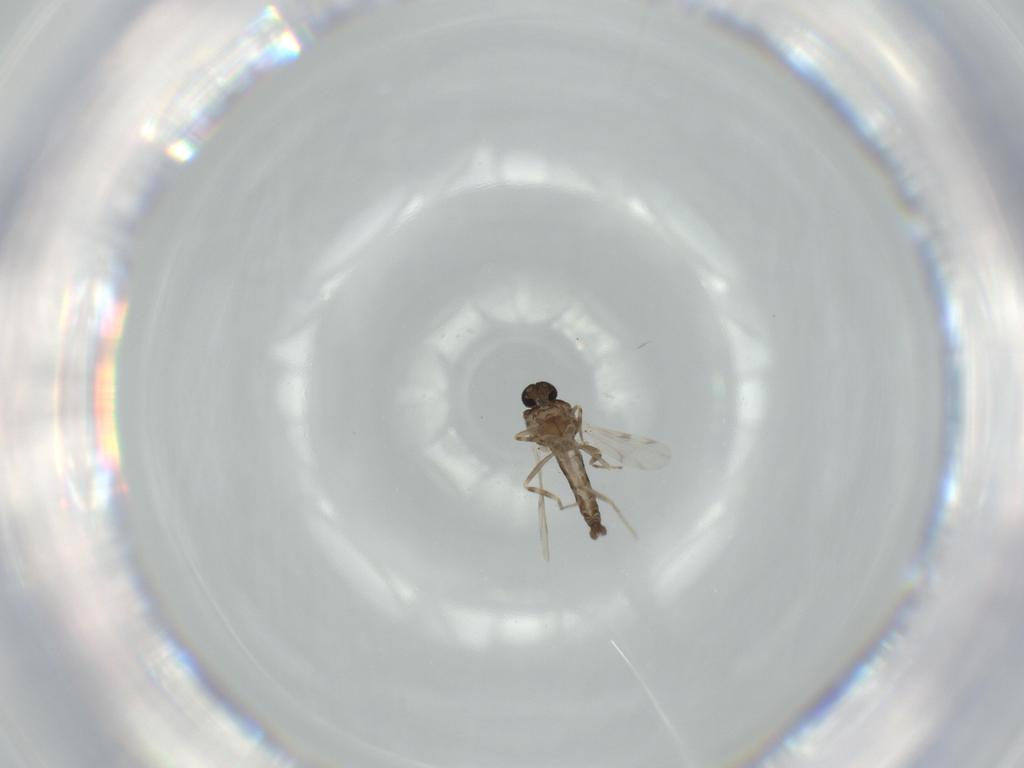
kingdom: Animalia
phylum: Arthropoda
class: Insecta
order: Diptera
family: Ceratopogonidae
